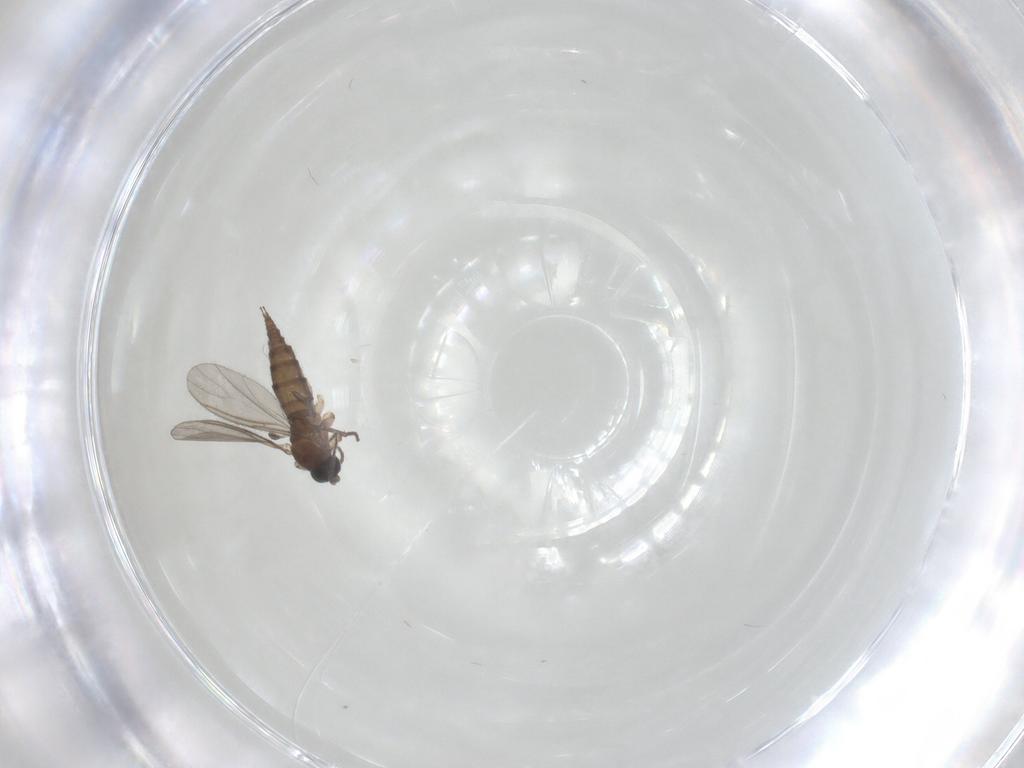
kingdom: Animalia
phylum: Arthropoda
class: Insecta
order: Diptera
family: Sciaridae
